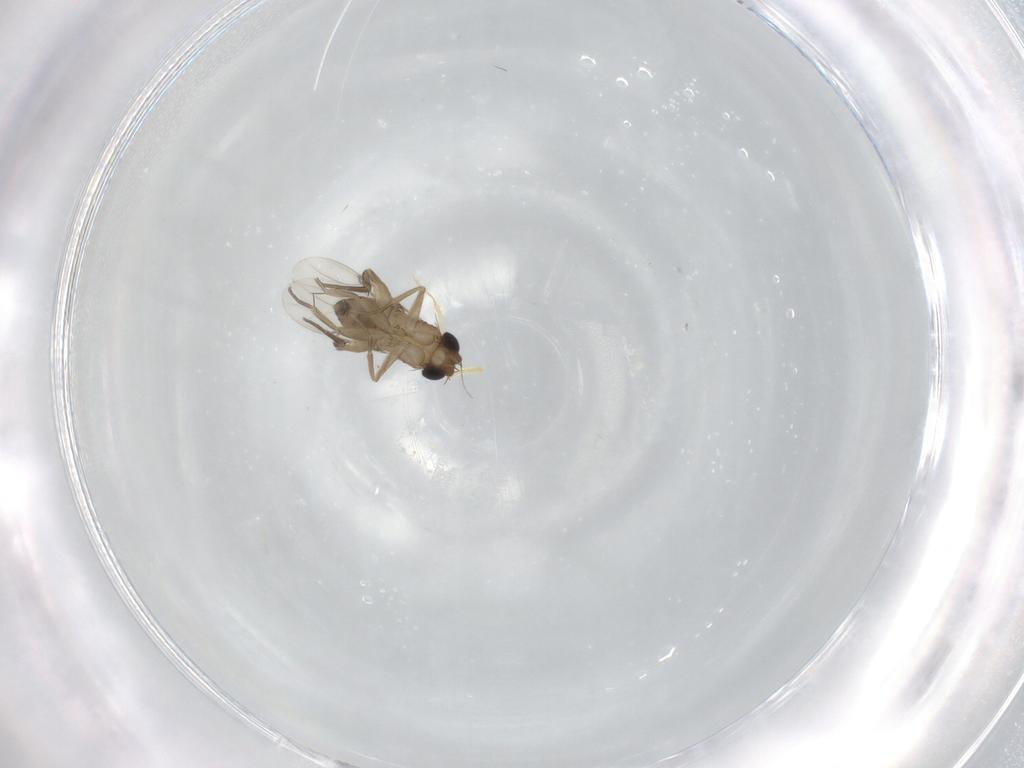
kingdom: Animalia
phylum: Arthropoda
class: Insecta
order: Diptera
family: Phoridae
